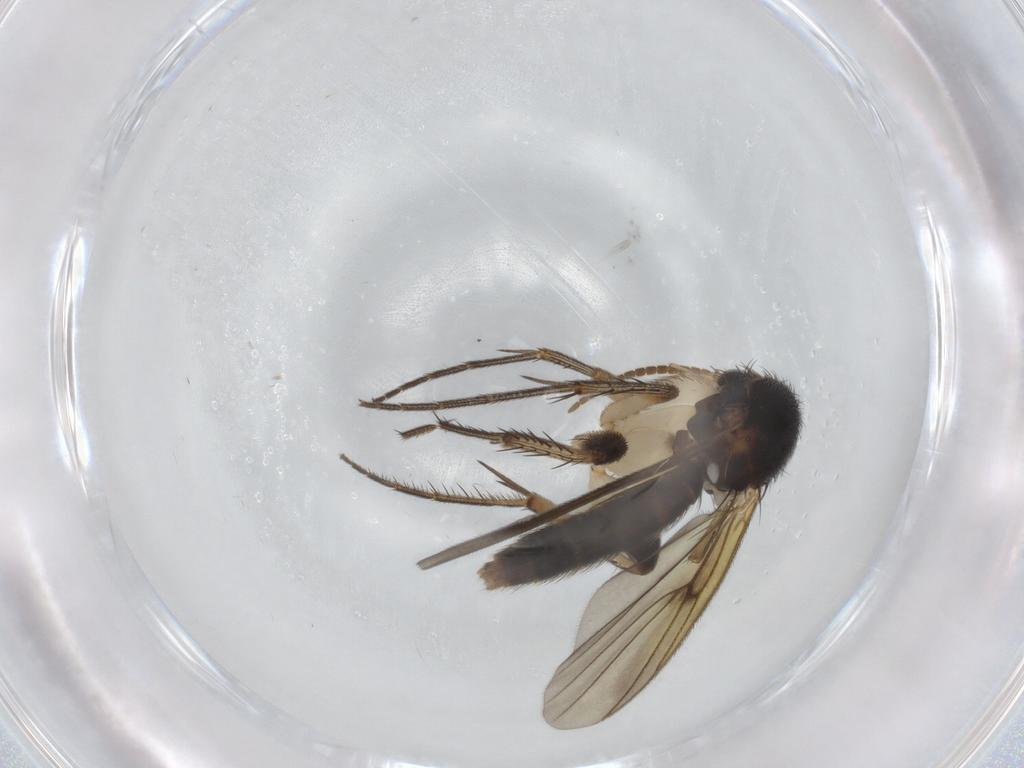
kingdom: Animalia
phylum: Arthropoda
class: Insecta
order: Diptera
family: Mycetophilidae
